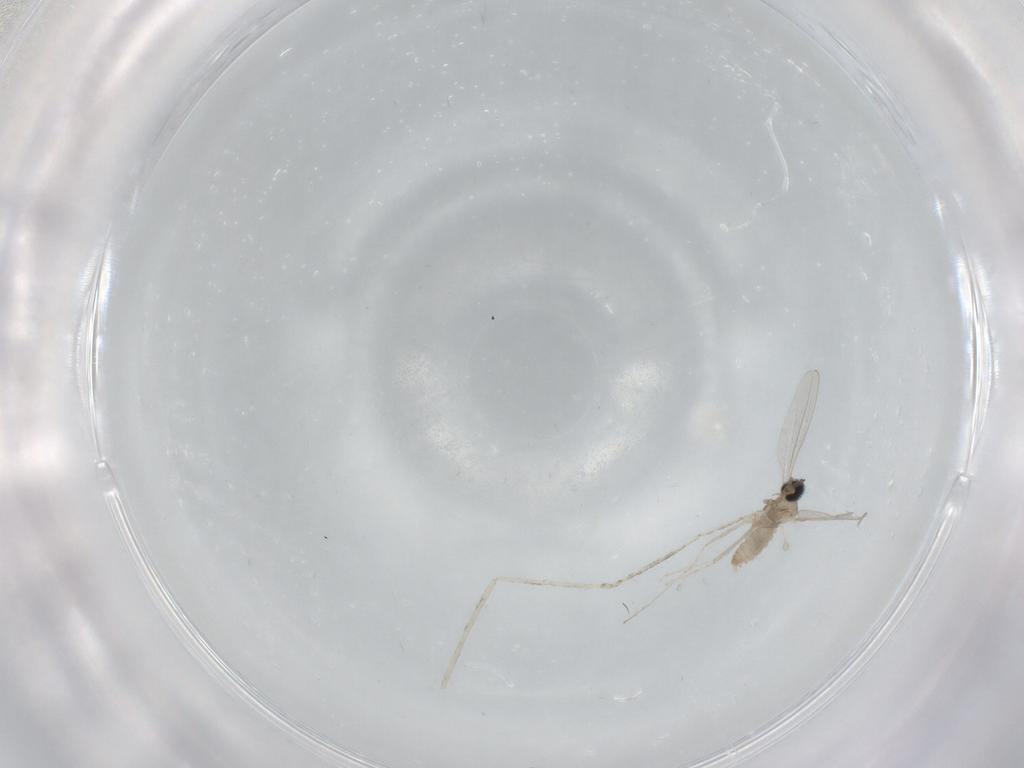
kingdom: Animalia
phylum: Arthropoda
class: Insecta
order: Diptera
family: Cecidomyiidae
